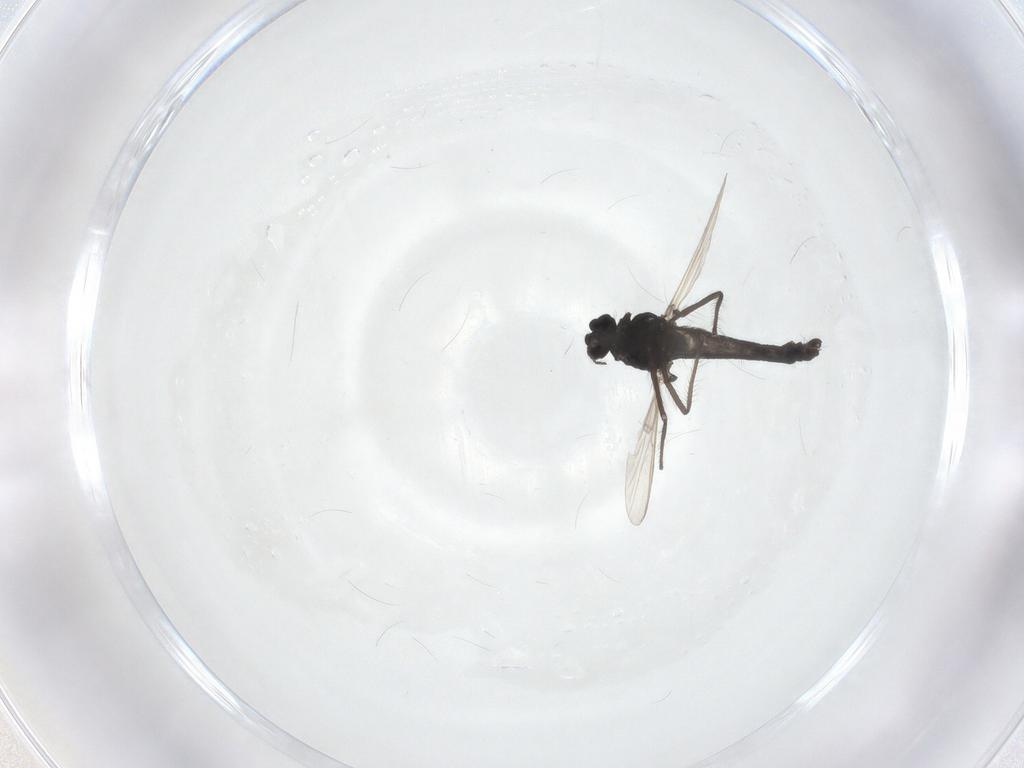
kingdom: Animalia
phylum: Arthropoda
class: Insecta
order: Diptera
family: Chironomidae
